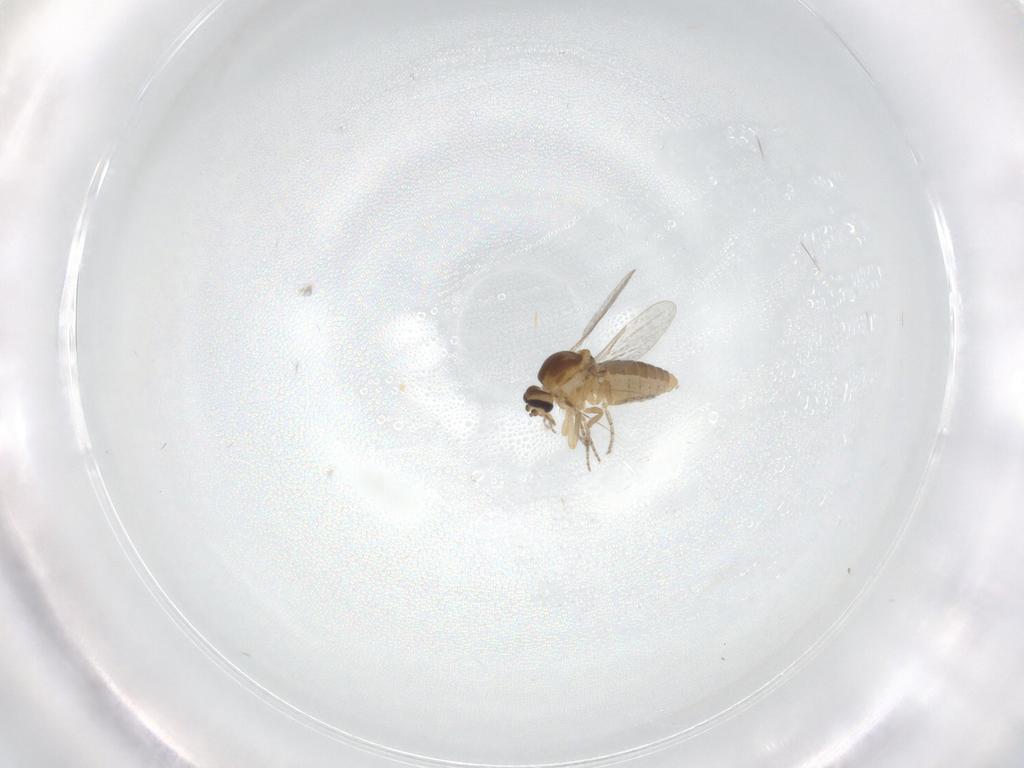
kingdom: Animalia
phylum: Arthropoda
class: Insecta
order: Diptera
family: Ceratopogonidae
